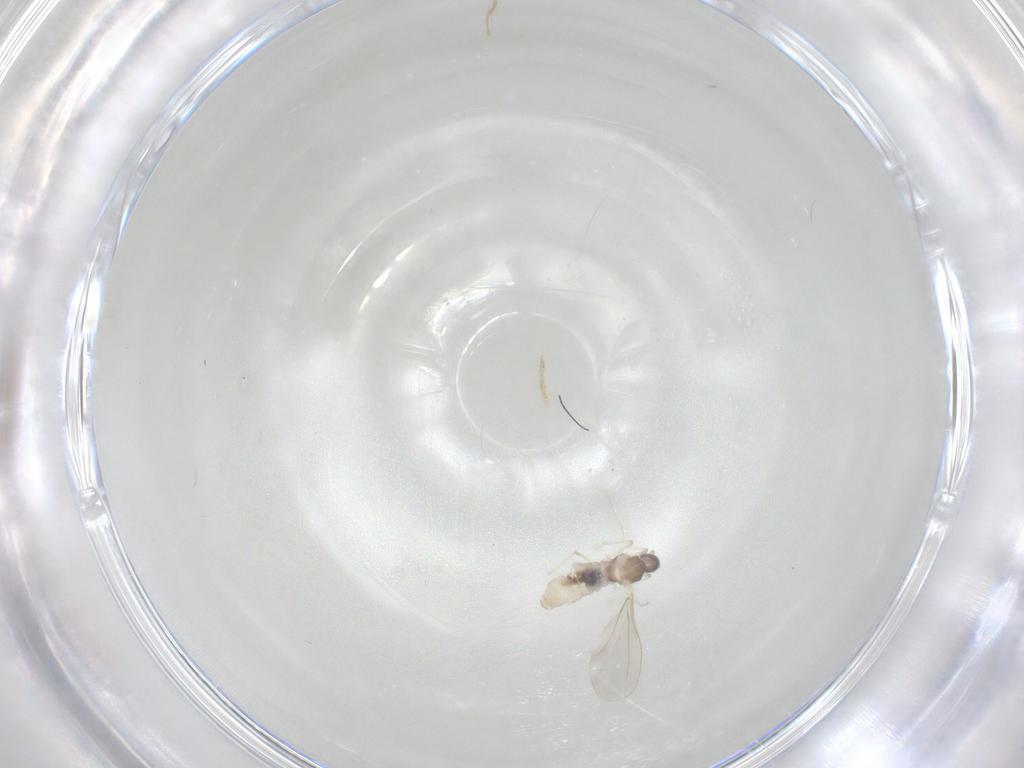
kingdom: Animalia
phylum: Arthropoda
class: Insecta
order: Diptera
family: Cecidomyiidae
